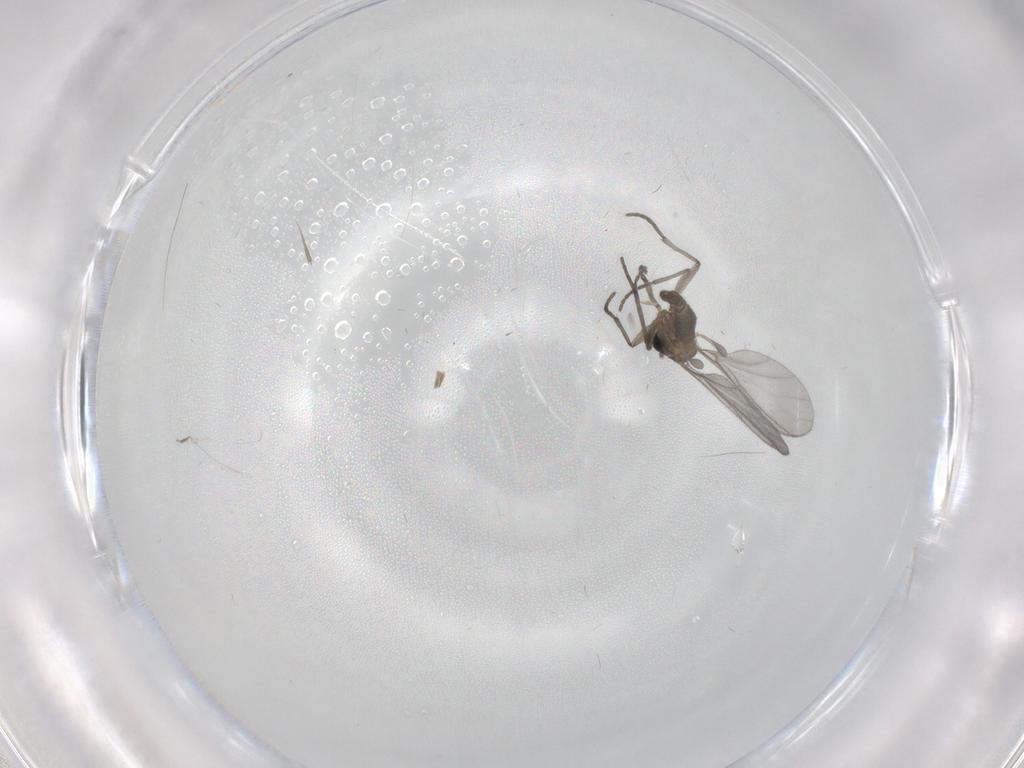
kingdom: Animalia
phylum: Arthropoda
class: Insecta
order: Diptera
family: Sciaridae
